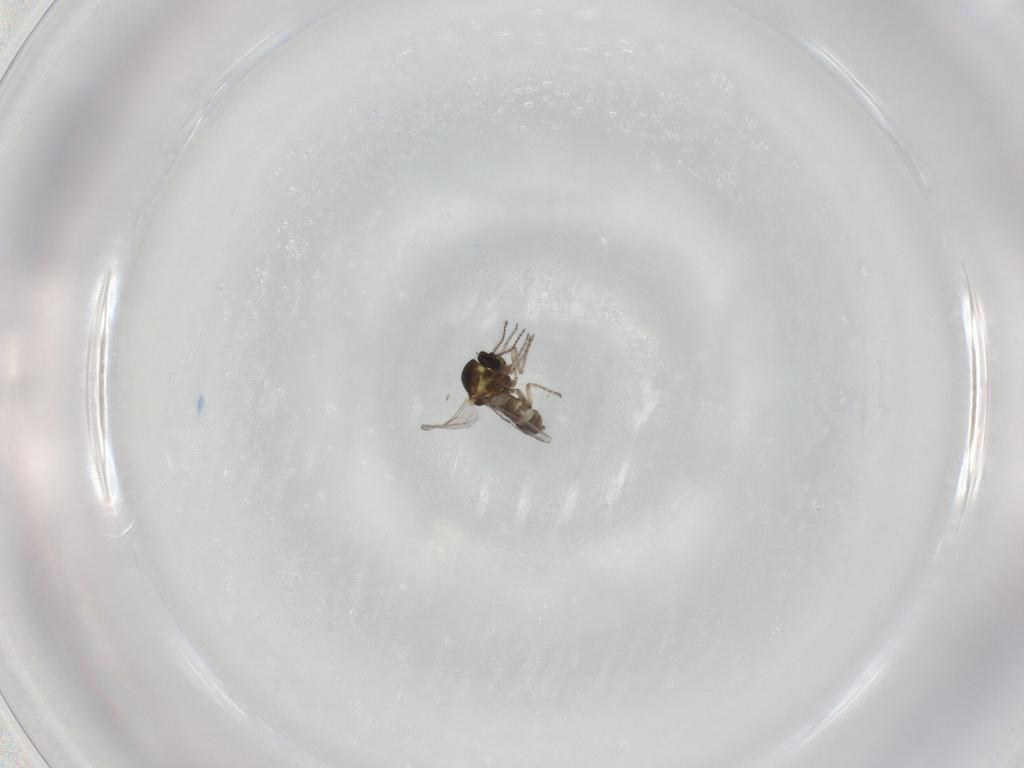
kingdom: Animalia
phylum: Arthropoda
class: Insecta
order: Diptera
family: Ceratopogonidae
